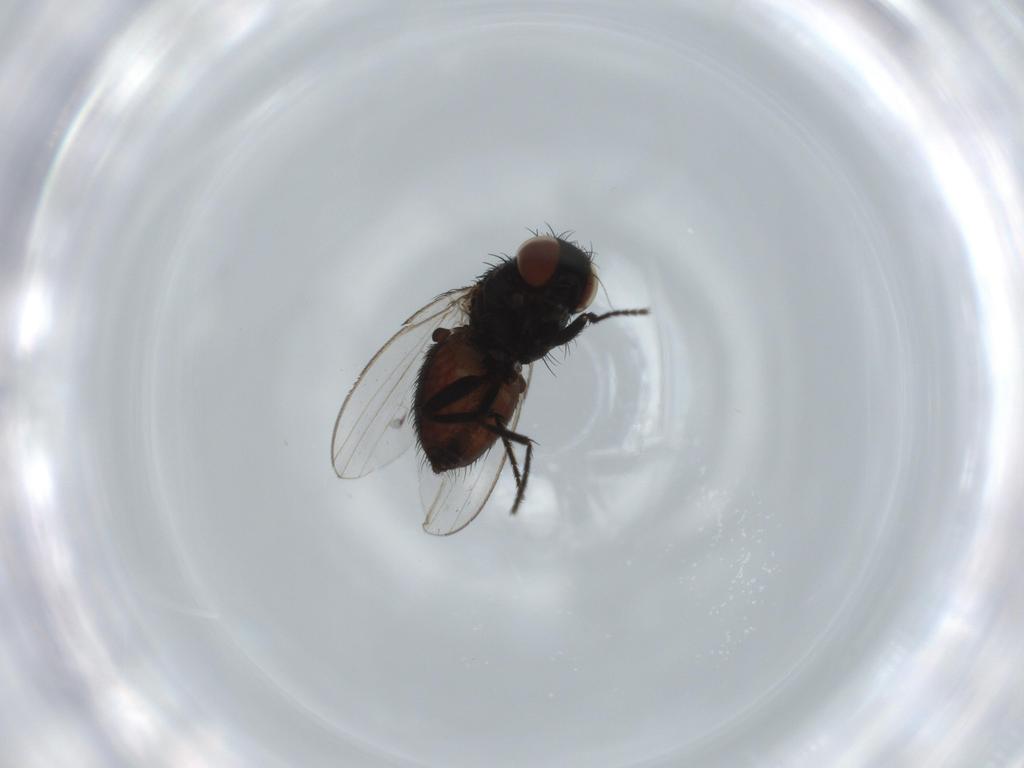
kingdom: Animalia
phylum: Arthropoda
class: Insecta
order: Diptera
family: Milichiidae
